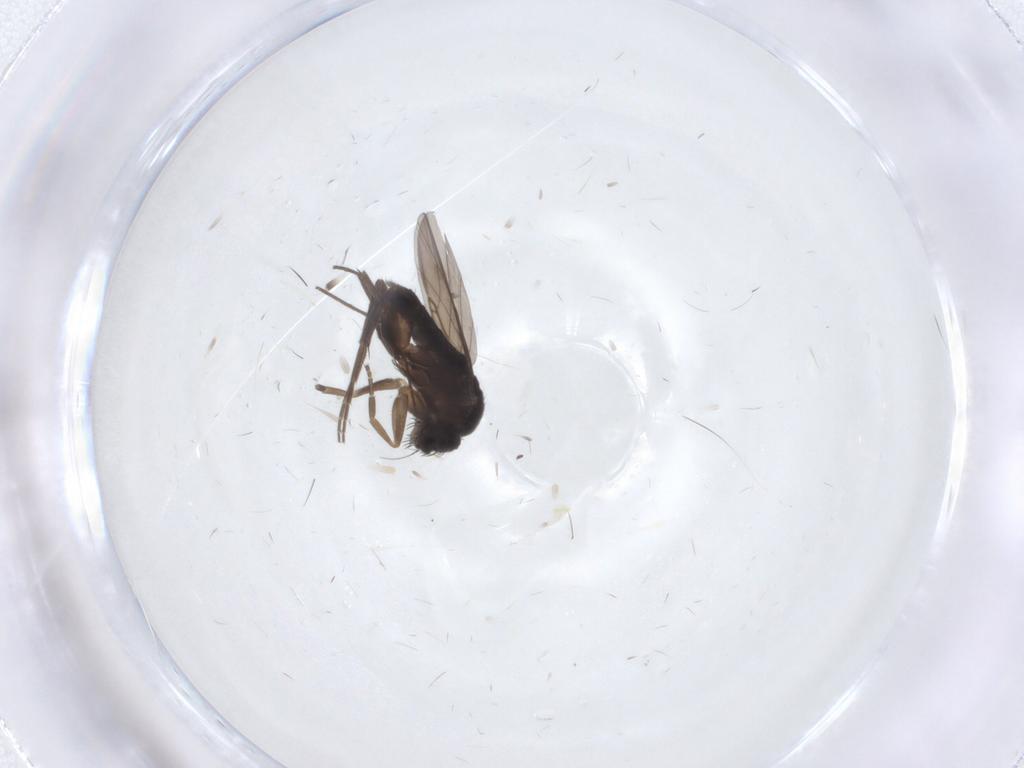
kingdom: Animalia
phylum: Arthropoda
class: Insecta
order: Diptera
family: Phoridae
